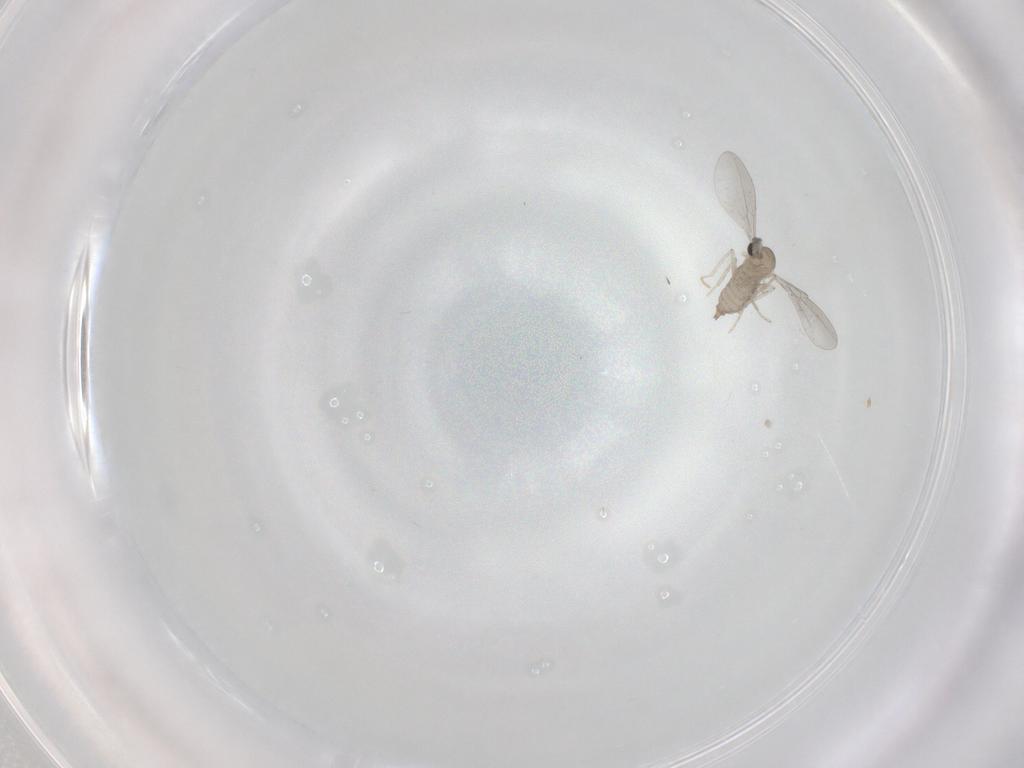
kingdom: Animalia
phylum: Arthropoda
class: Insecta
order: Diptera
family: Cecidomyiidae
